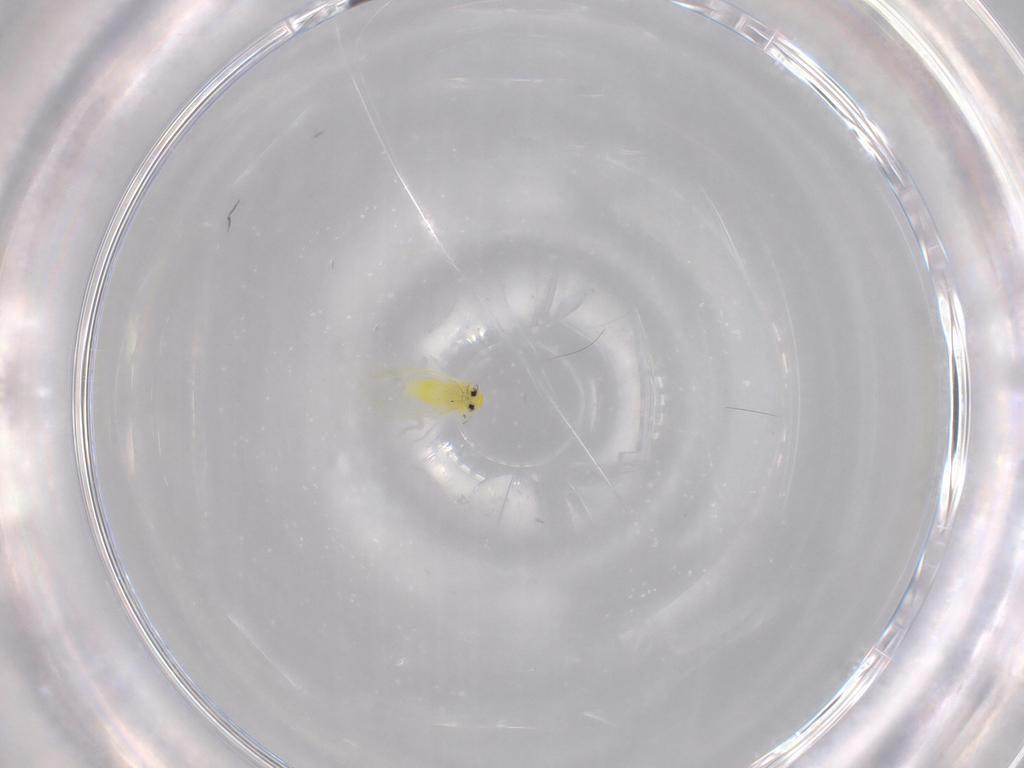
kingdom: Animalia
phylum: Arthropoda
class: Insecta
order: Hemiptera
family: Aleyrodidae
